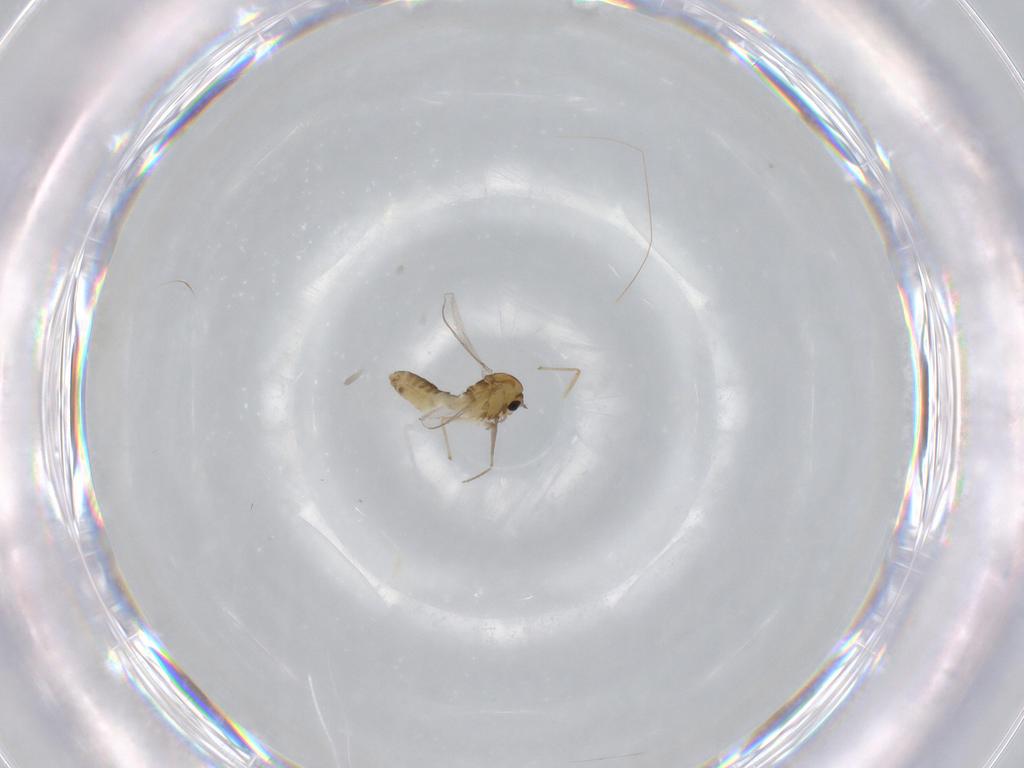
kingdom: Animalia
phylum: Arthropoda
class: Insecta
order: Diptera
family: Chironomidae
